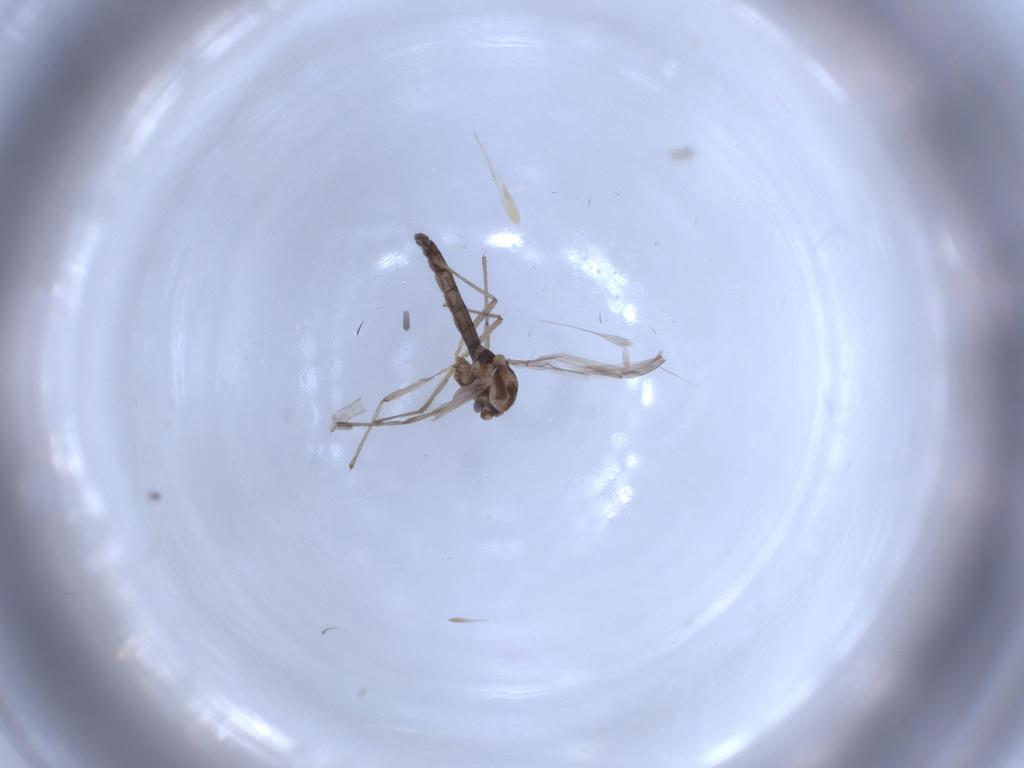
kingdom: Animalia
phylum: Arthropoda
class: Insecta
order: Diptera
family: Chironomidae
